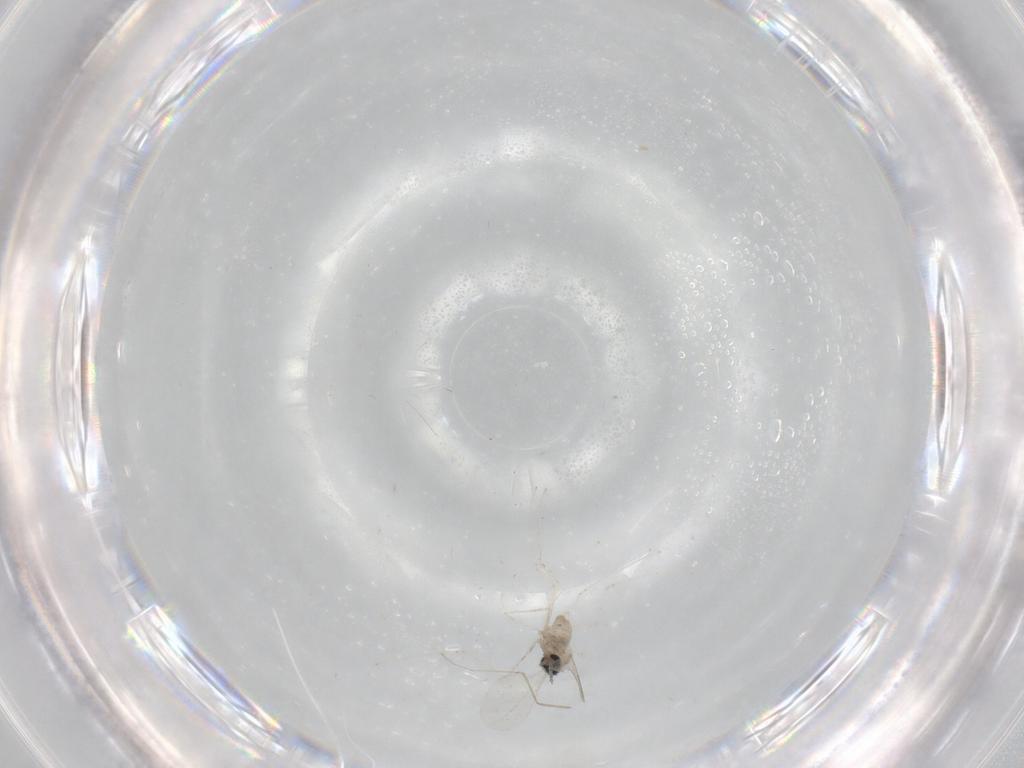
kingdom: Animalia
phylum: Arthropoda
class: Insecta
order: Diptera
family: Cecidomyiidae
